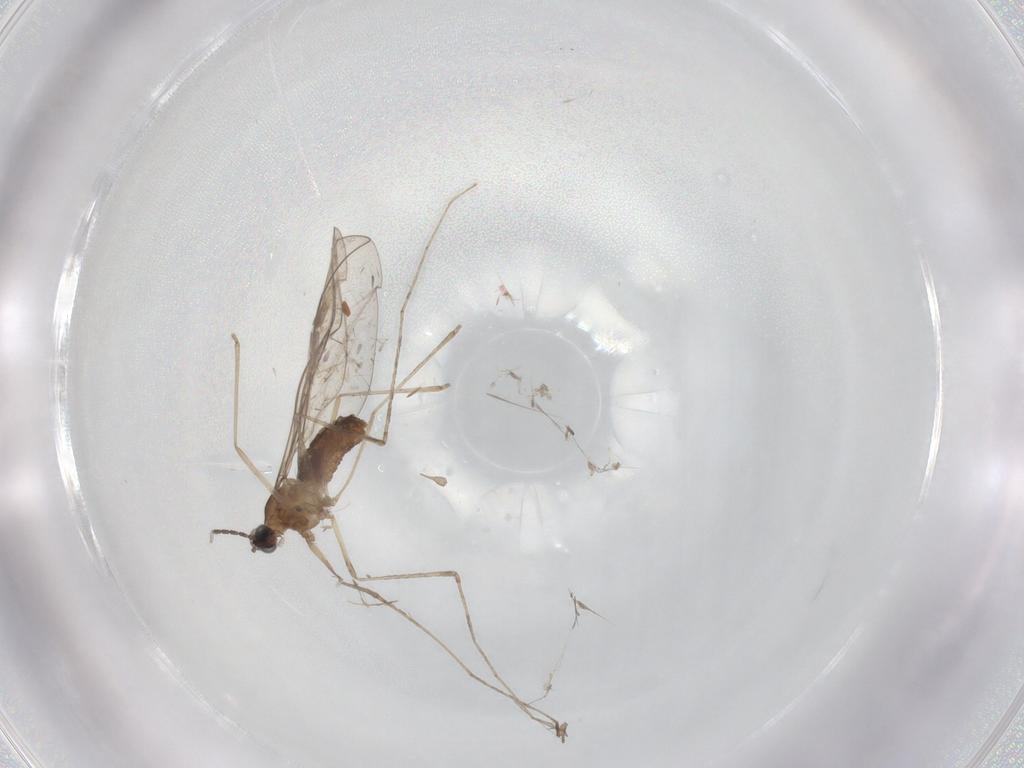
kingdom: Animalia
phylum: Arthropoda
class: Insecta
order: Diptera
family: Cecidomyiidae
